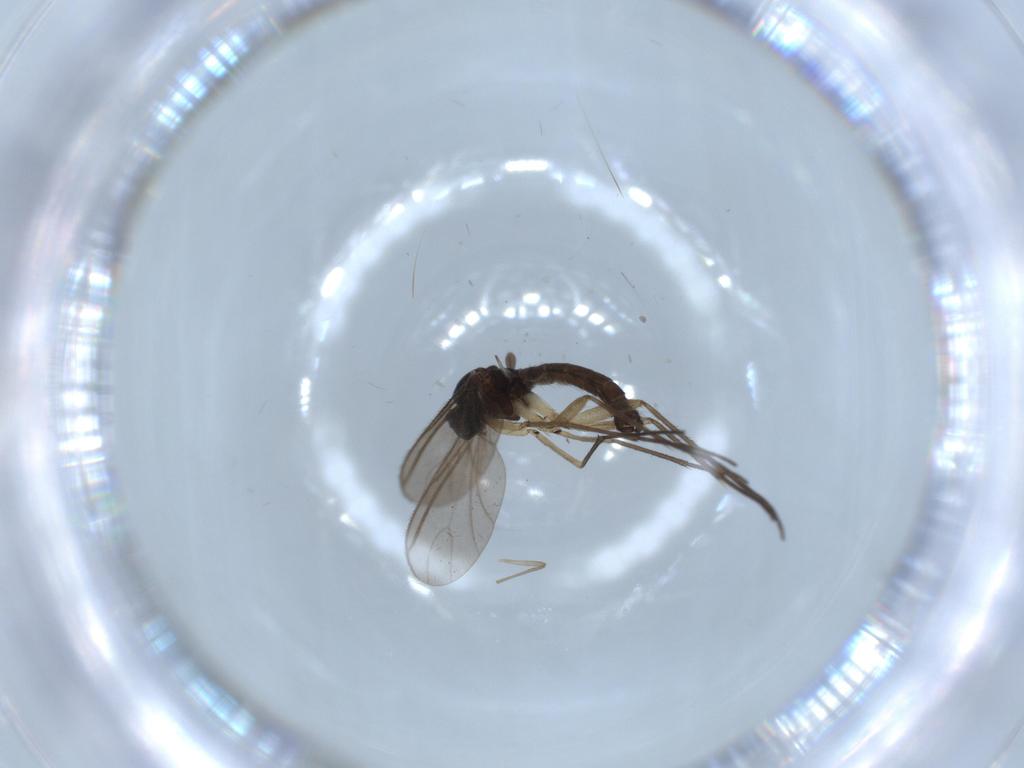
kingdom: Animalia
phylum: Arthropoda
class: Insecta
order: Diptera
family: Sciaridae
